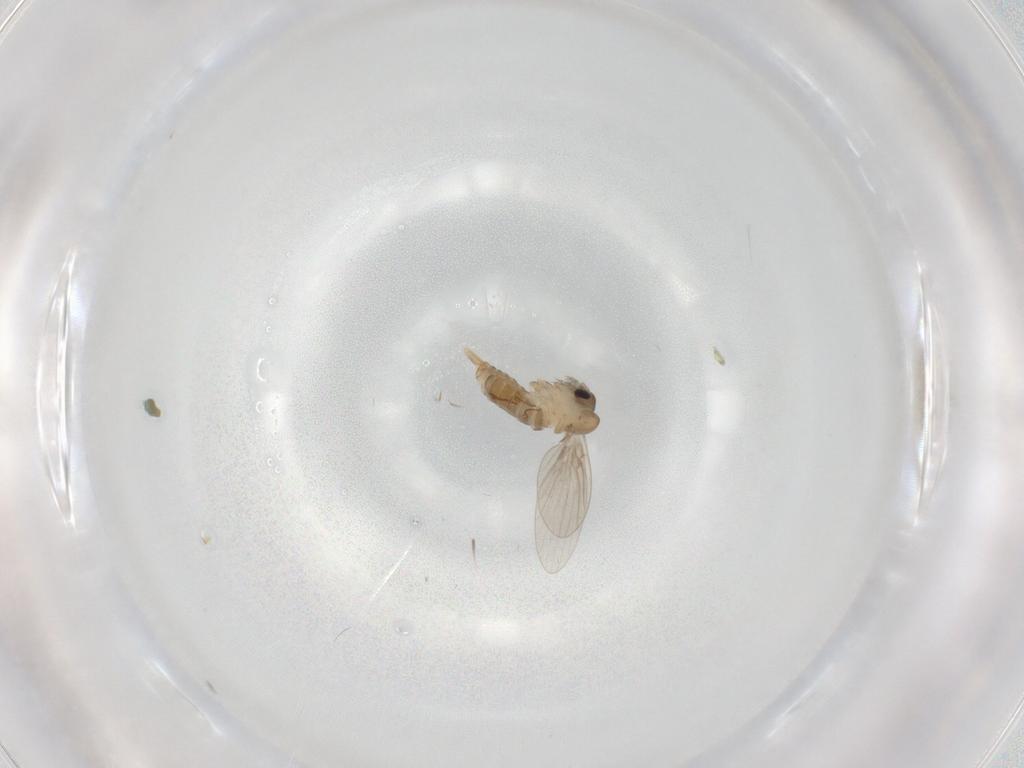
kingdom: Animalia
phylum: Arthropoda
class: Insecta
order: Diptera
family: Psychodidae
